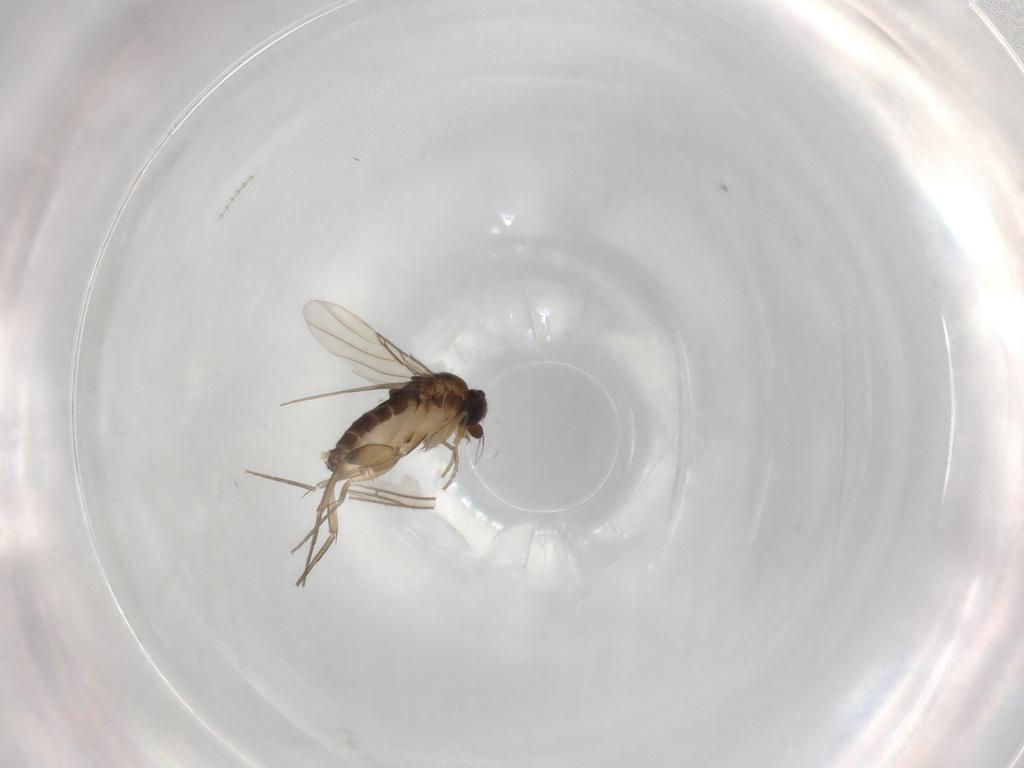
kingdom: Animalia
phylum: Arthropoda
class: Insecta
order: Diptera
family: Phoridae
